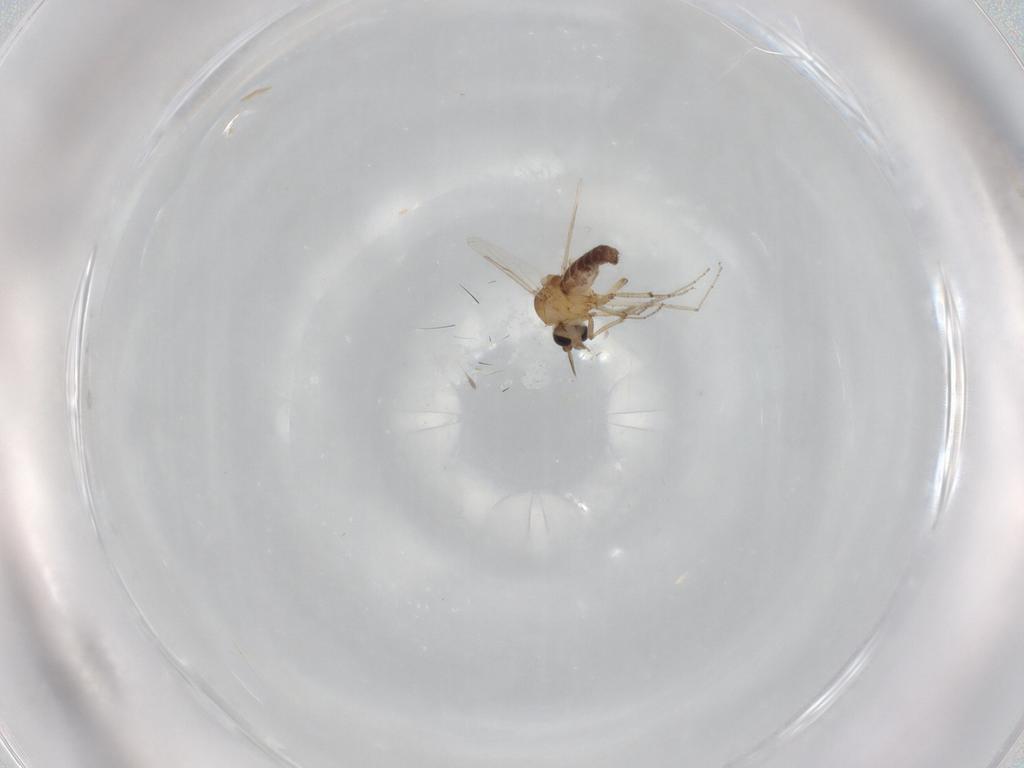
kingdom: Animalia
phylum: Arthropoda
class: Insecta
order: Diptera
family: Ceratopogonidae
